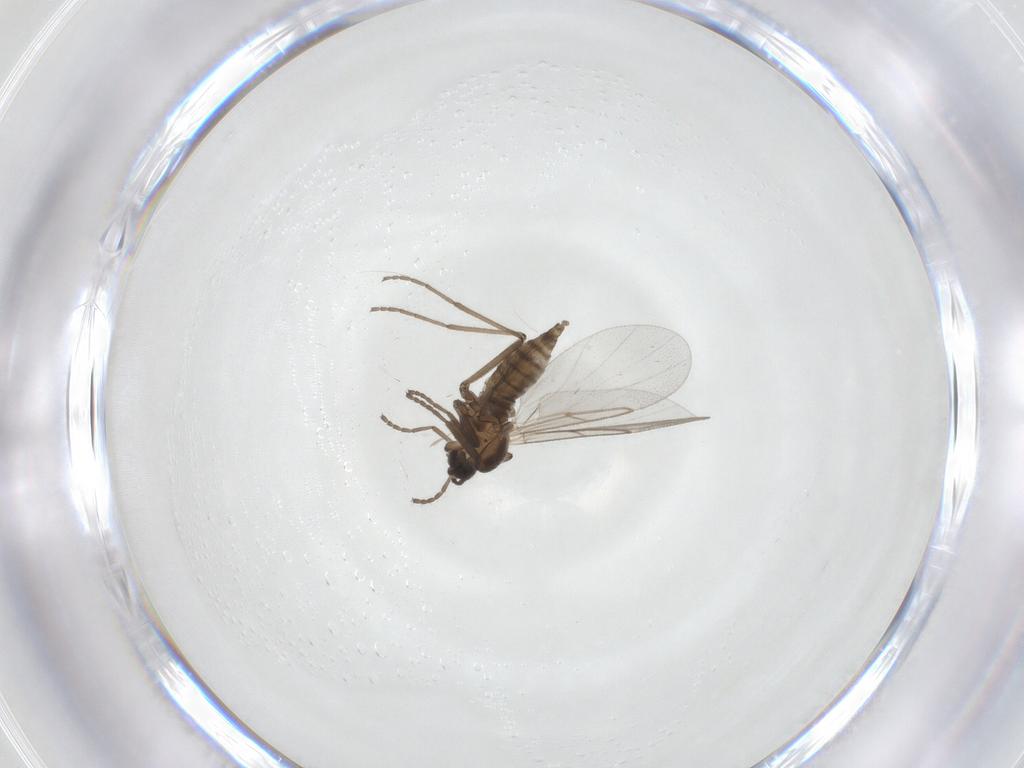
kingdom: Animalia
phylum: Arthropoda
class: Insecta
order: Diptera
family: Cecidomyiidae
